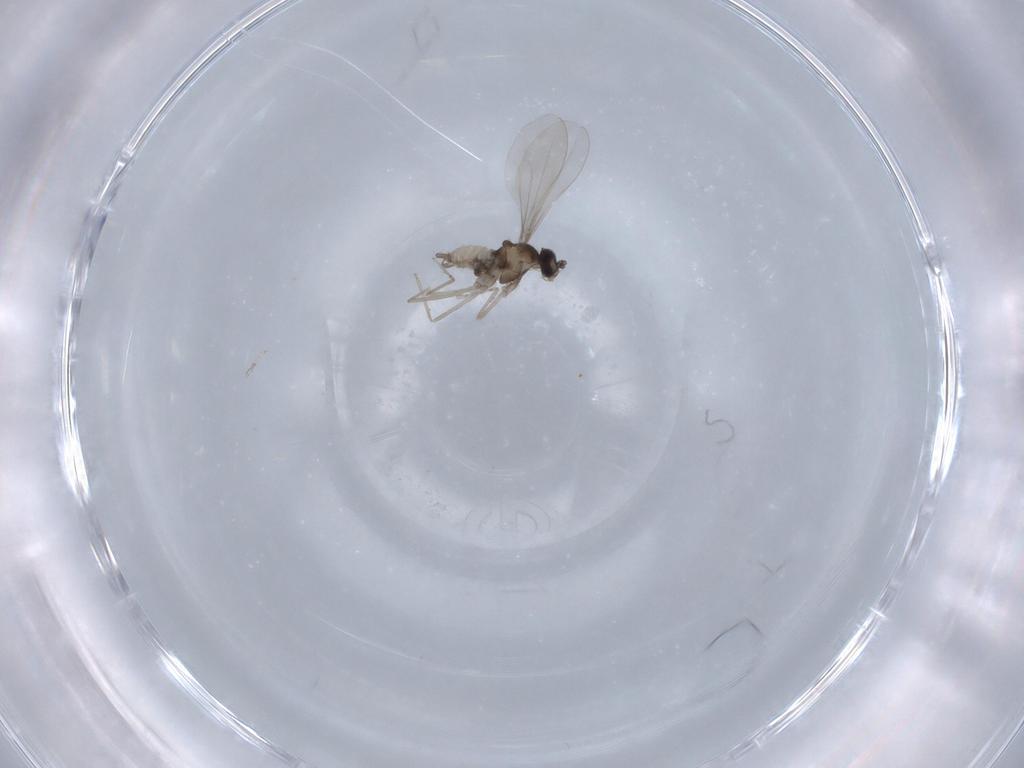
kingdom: Animalia
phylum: Arthropoda
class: Insecta
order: Diptera
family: Cecidomyiidae
